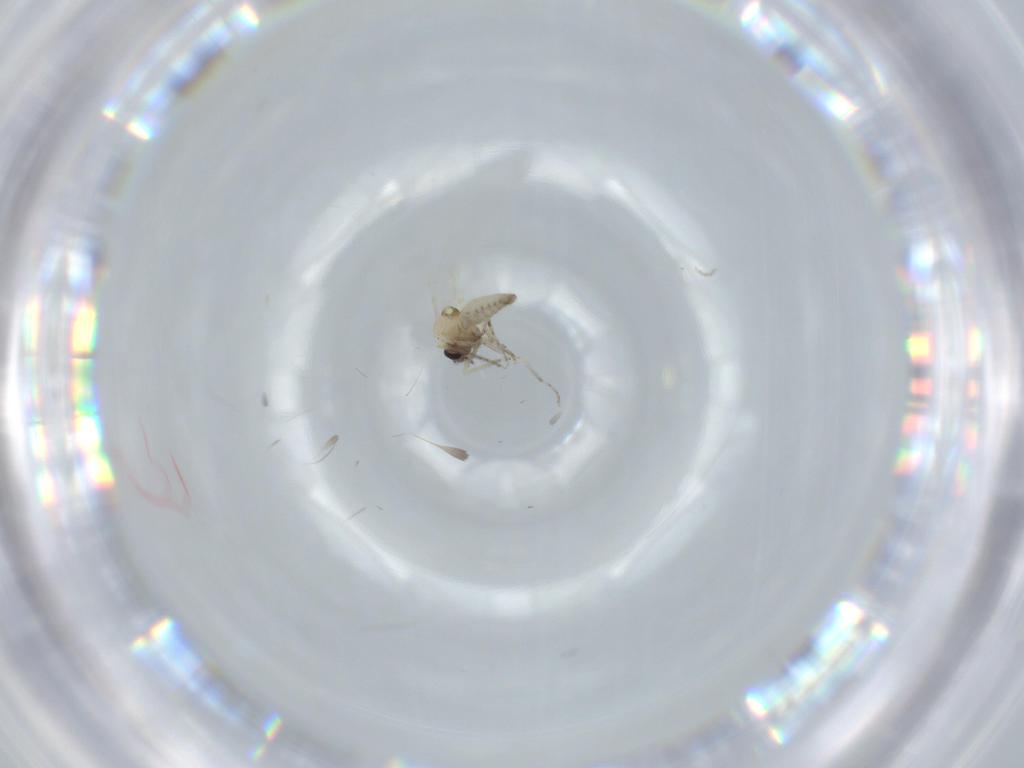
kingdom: Animalia
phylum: Arthropoda
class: Insecta
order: Diptera
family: Ceratopogonidae
